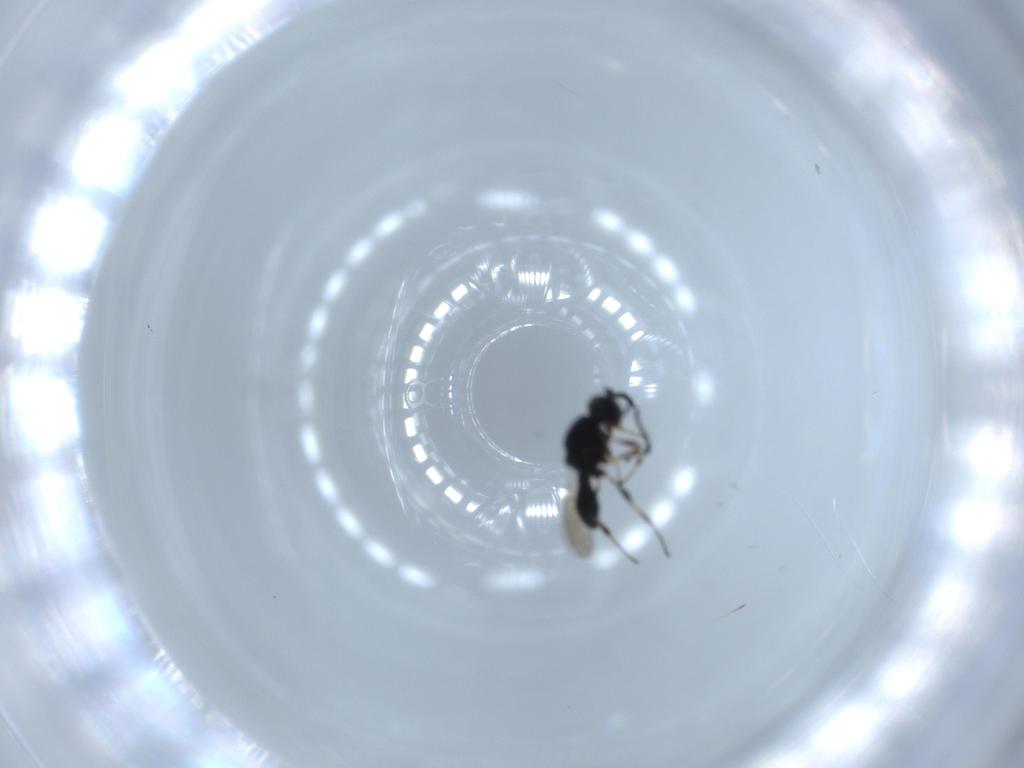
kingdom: Animalia
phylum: Arthropoda
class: Insecta
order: Hymenoptera
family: Platygastridae
